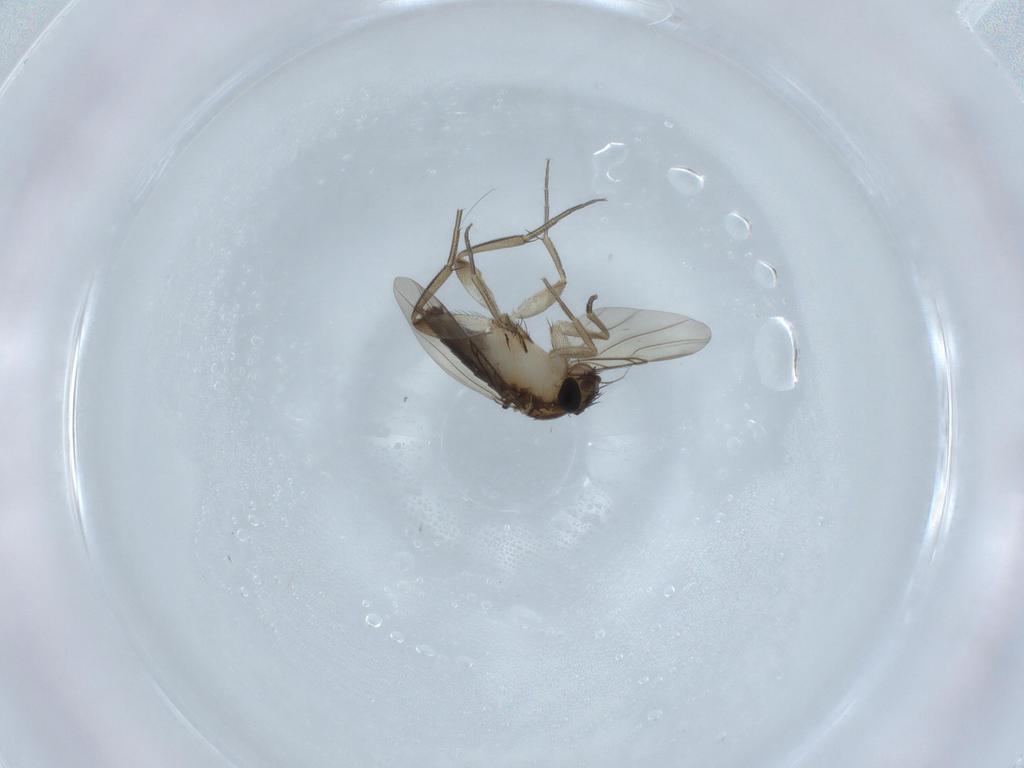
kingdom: Animalia
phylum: Arthropoda
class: Insecta
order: Diptera
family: Phoridae
